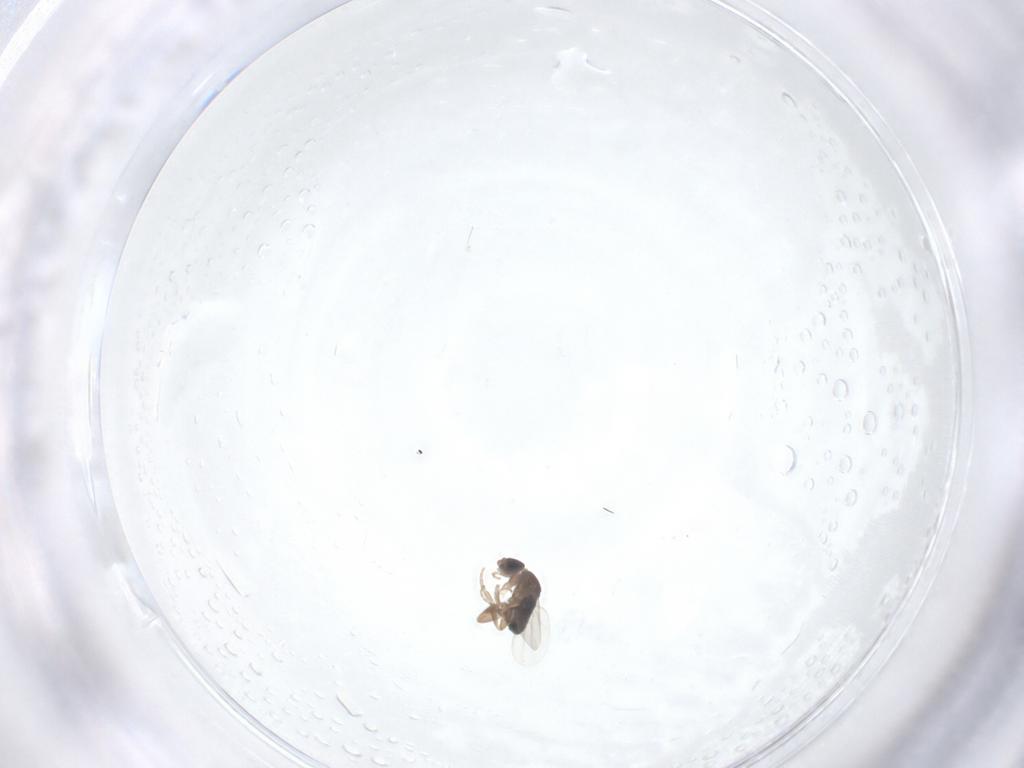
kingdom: Animalia
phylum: Arthropoda
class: Insecta
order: Diptera
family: Phoridae
